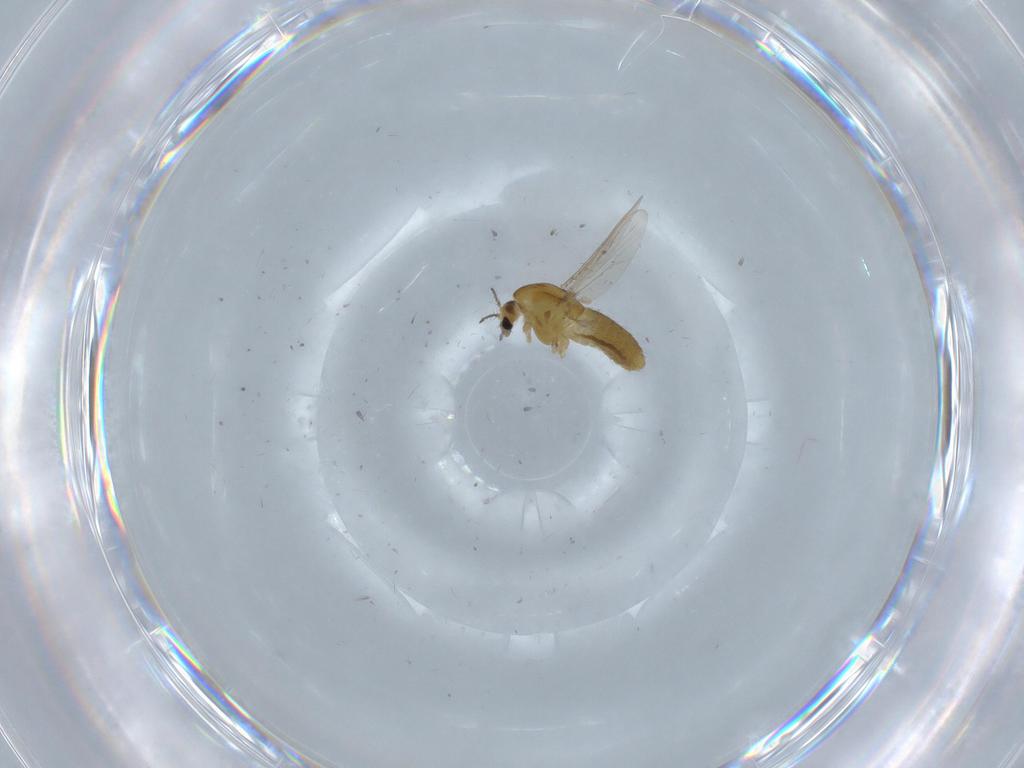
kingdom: Animalia
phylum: Arthropoda
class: Insecta
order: Diptera
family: Chironomidae
